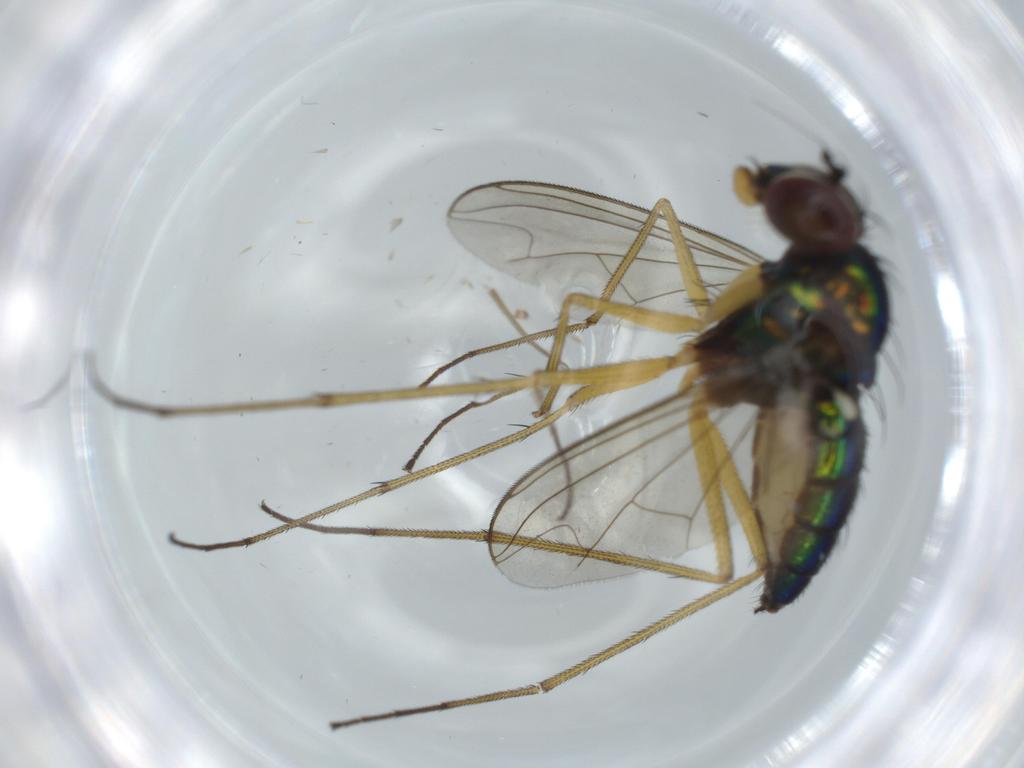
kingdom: Animalia
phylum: Arthropoda
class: Insecta
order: Diptera
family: Dolichopodidae
